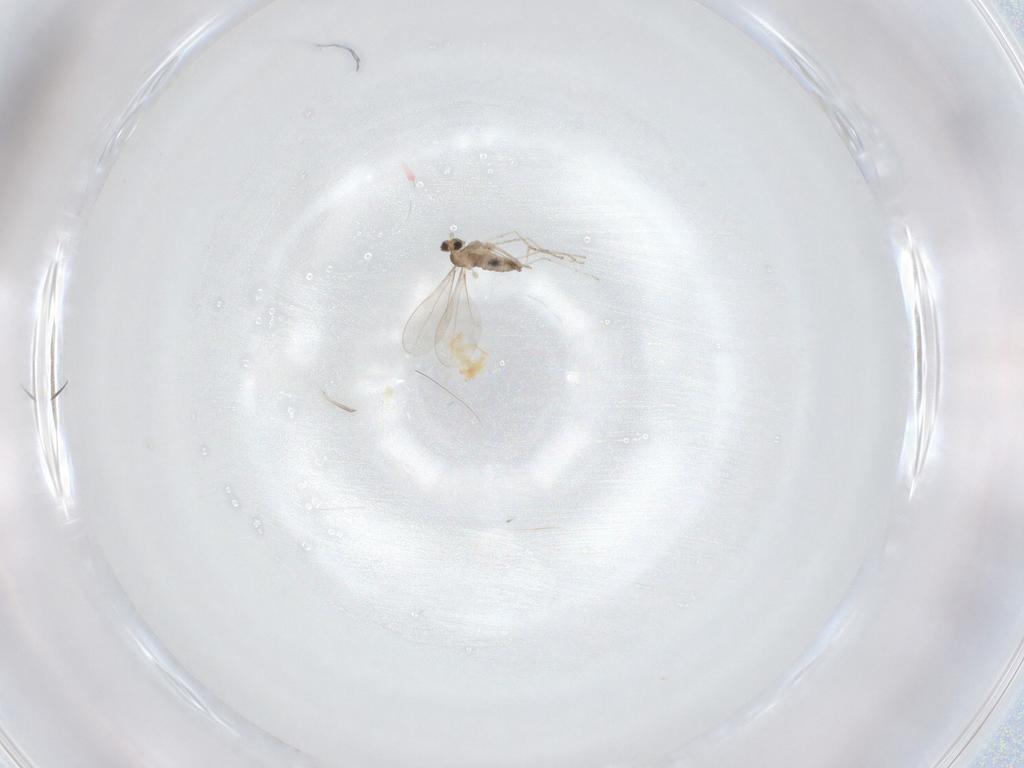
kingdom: Animalia
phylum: Arthropoda
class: Insecta
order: Diptera
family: Cecidomyiidae
